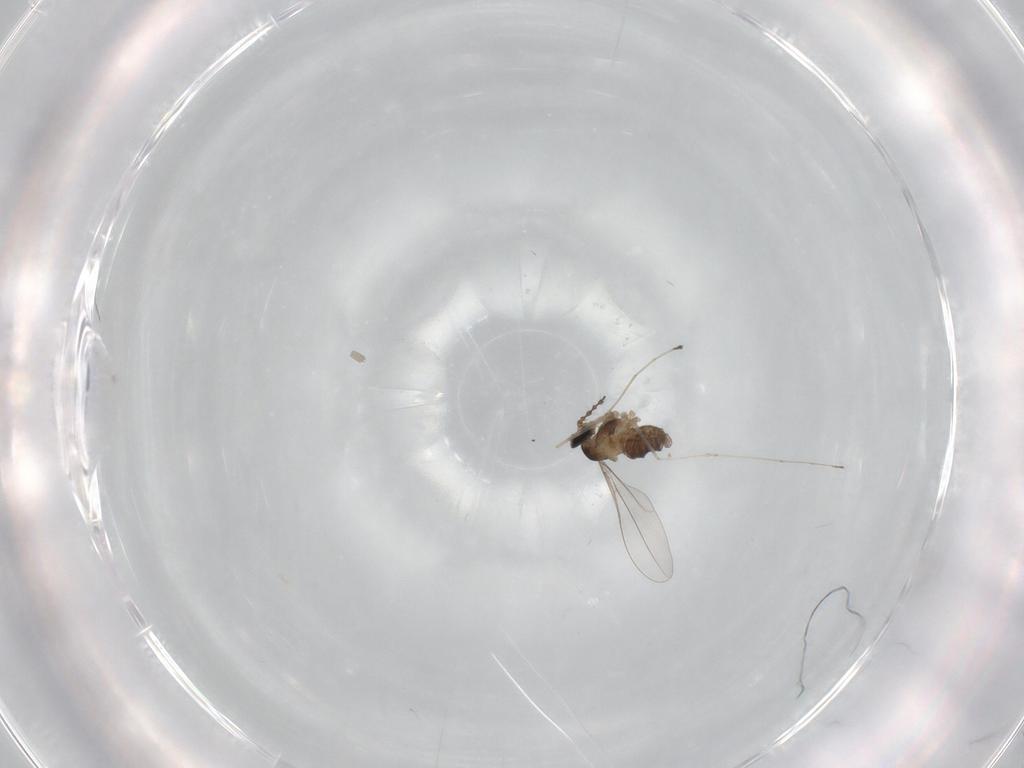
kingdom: Animalia
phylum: Arthropoda
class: Insecta
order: Diptera
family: Cecidomyiidae
